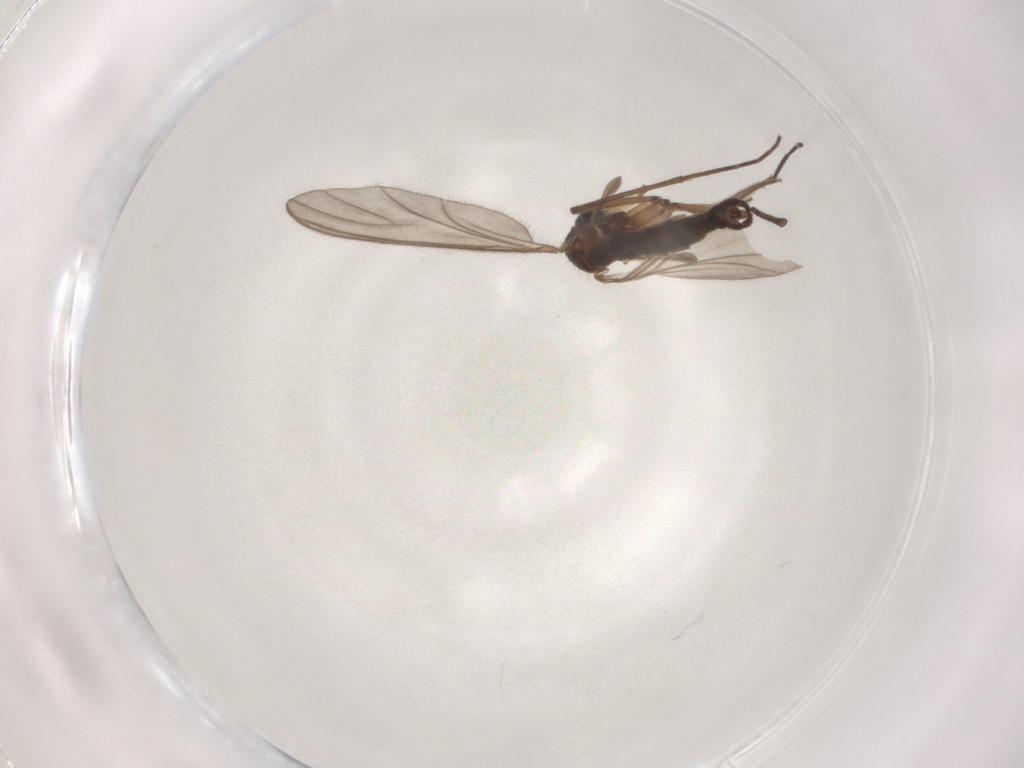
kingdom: Animalia
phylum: Arthropoda
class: Insecta
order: Diptera
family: Sciaridae
